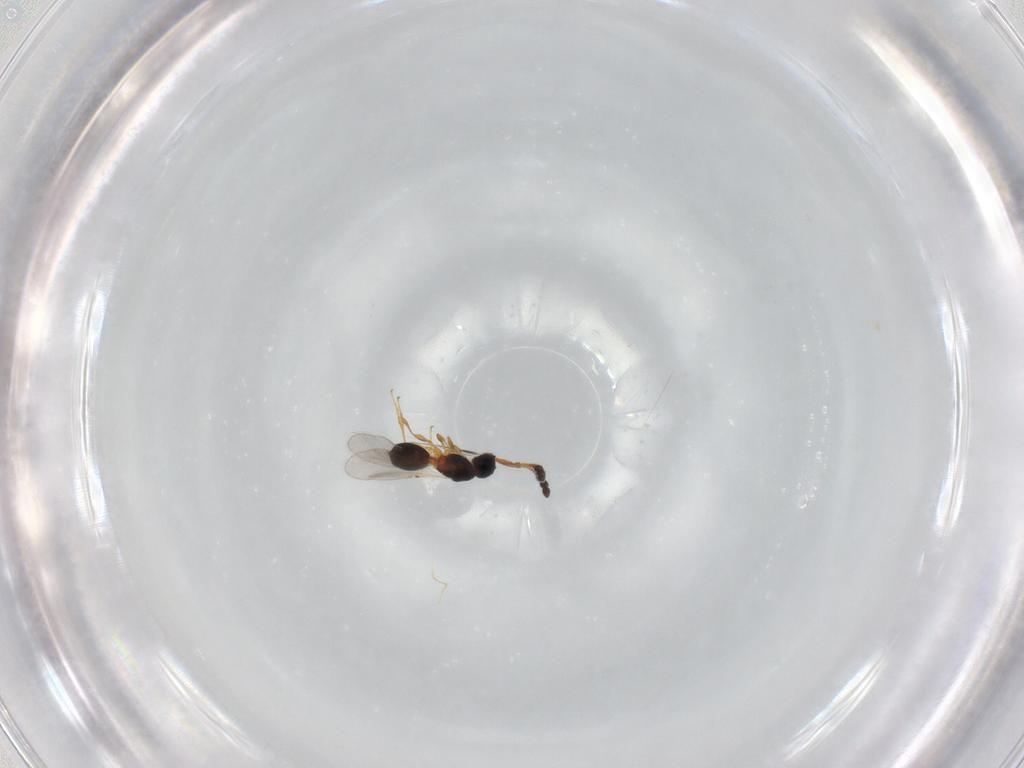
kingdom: Animalia
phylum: Arthropoda
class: Insecta
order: Hymenoptera
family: Diapriidae
